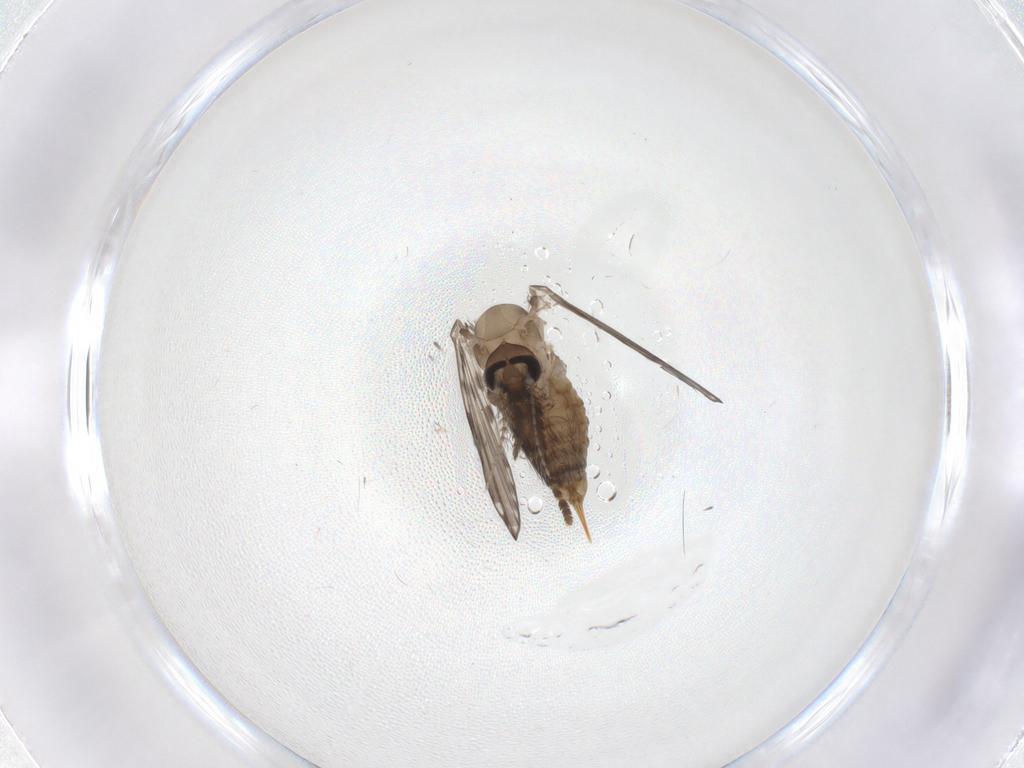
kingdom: Animalia
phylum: Arthropoda
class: Insecta
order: Diptera
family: Psychodidae
